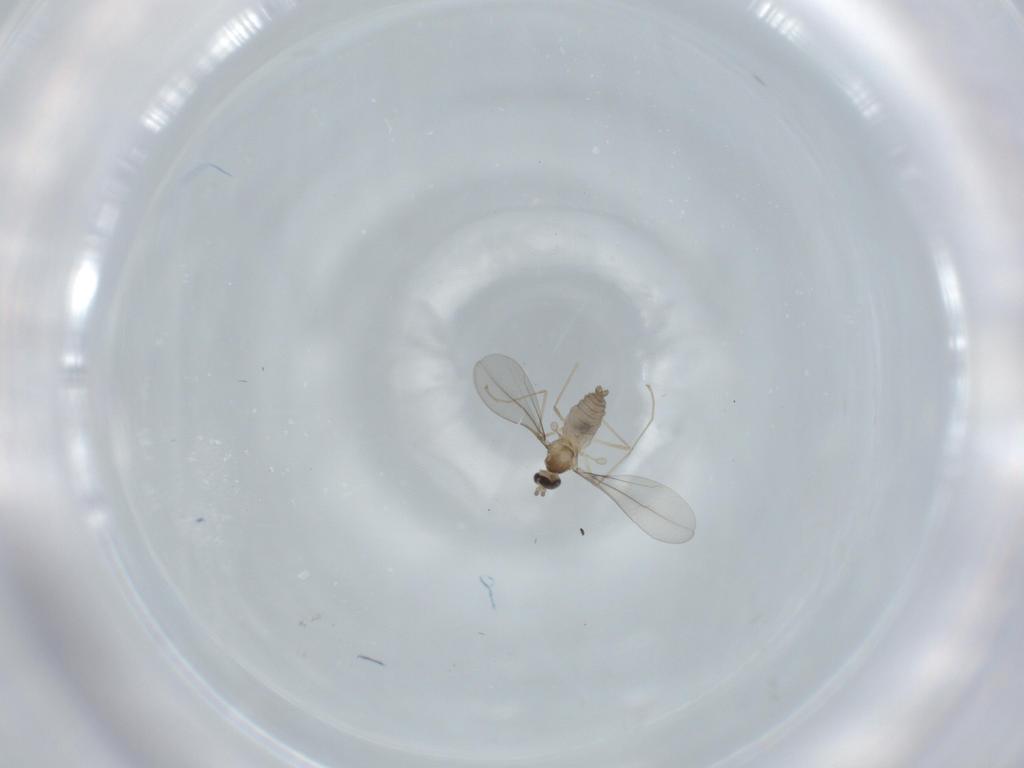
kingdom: Animalia
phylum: Arthropoda
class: Insecta
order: Diptera
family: Cecidomyiidae
